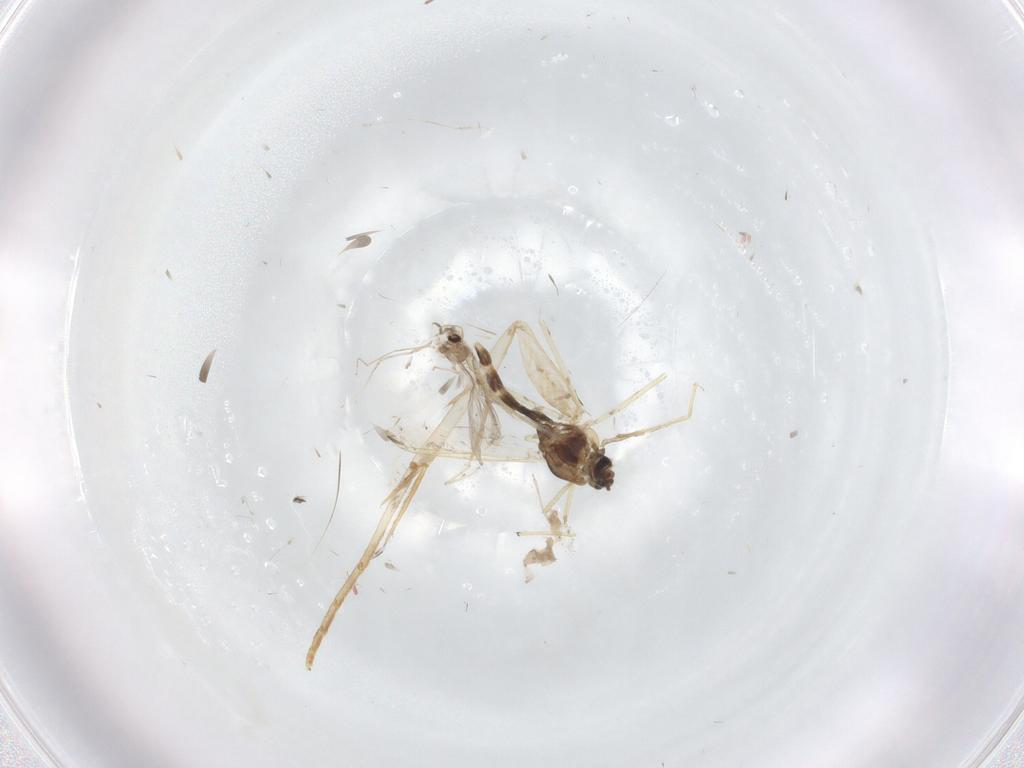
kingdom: Animalia
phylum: Arthropoda
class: Insecta
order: Diptera
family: Chironomidae
